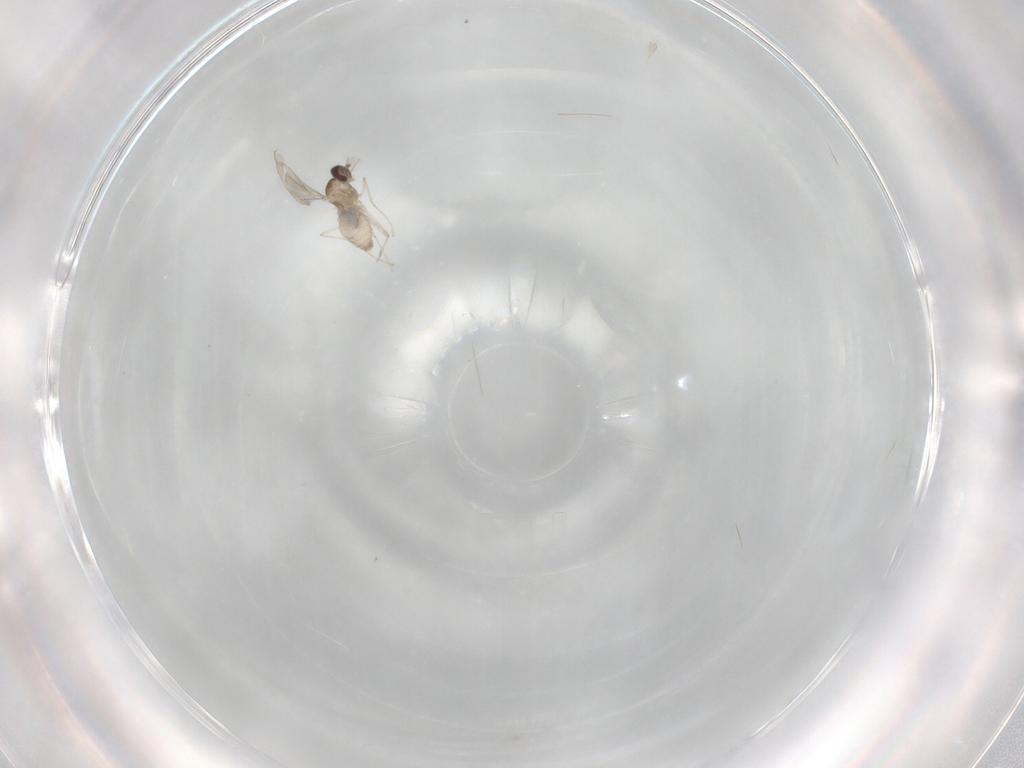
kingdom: Animalia
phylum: Arthropoda
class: Insecta
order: Diptera
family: Cecidomyiidae
